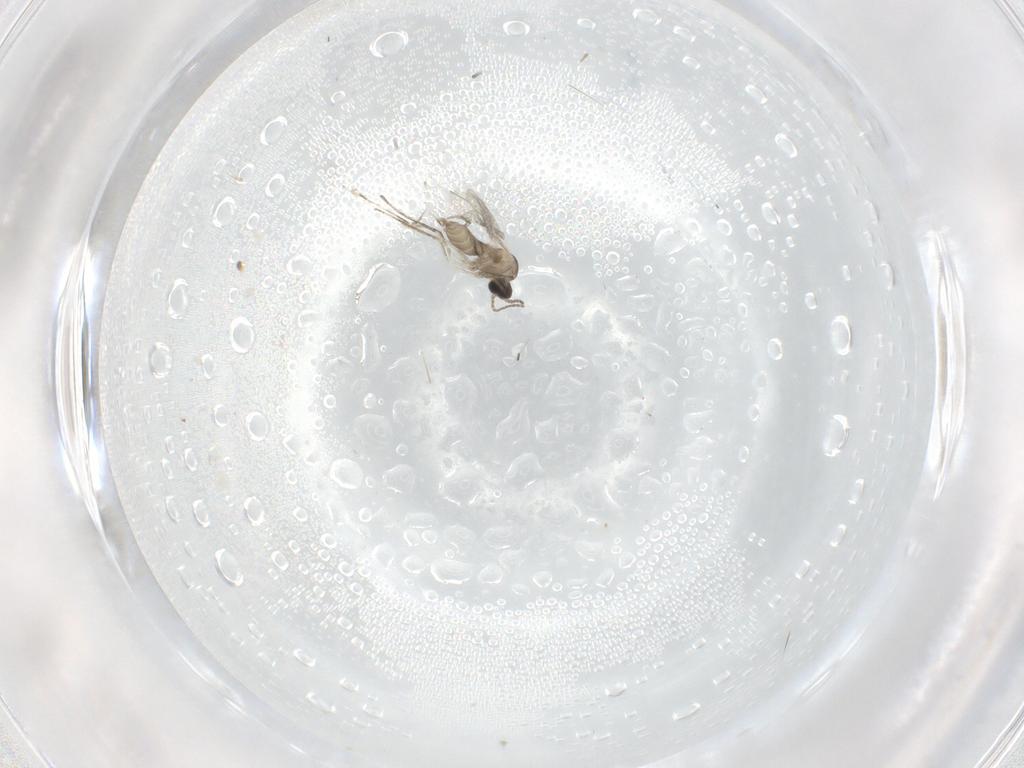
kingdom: Animalia
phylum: Arthropoda
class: Insecta
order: Diptera
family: Cecidomyiidae
